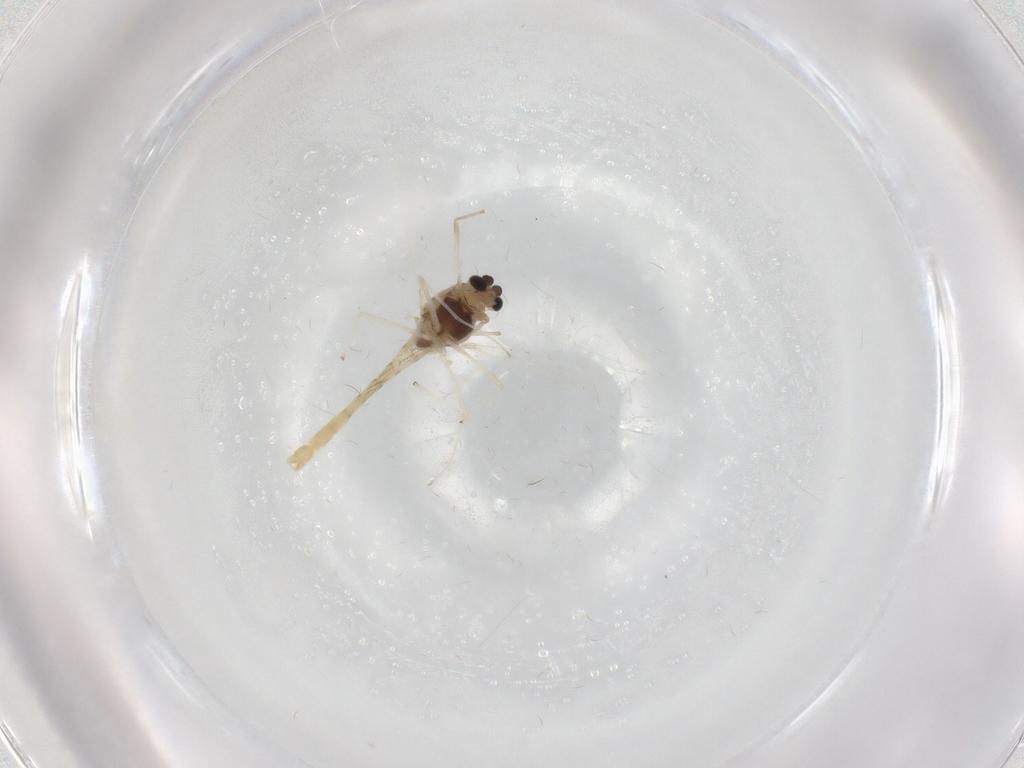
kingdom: Animalia
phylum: Arthropoda
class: Insecta
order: Diptera
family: Chironomidae
